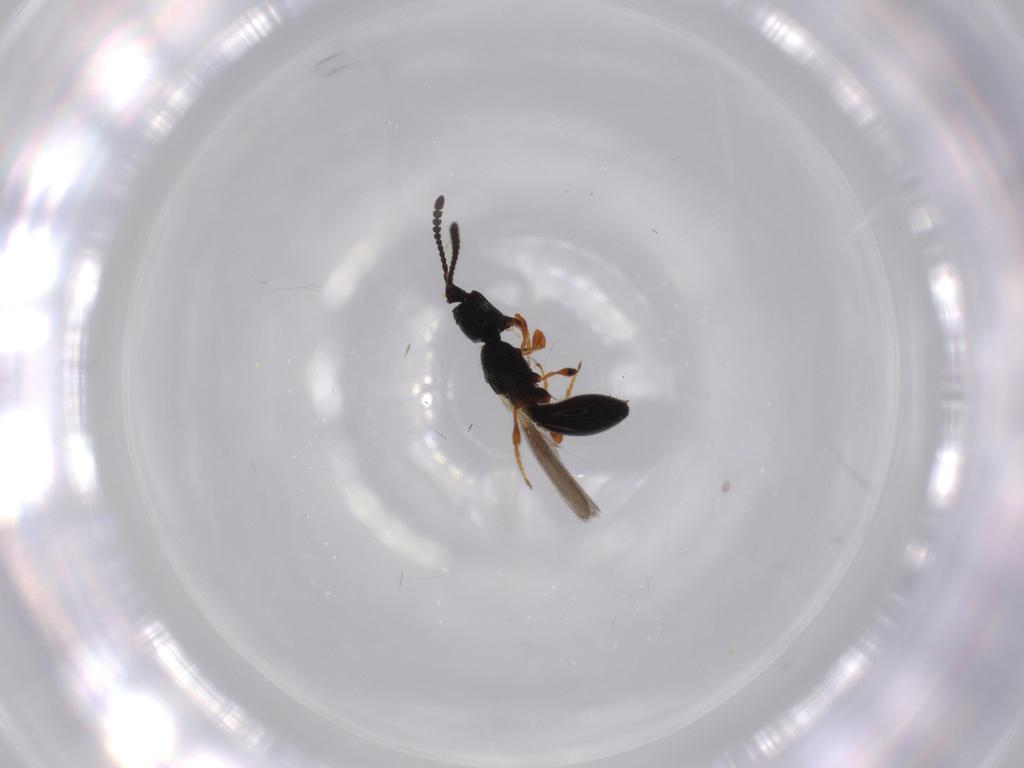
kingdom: Animalia
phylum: Arthropoda
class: Insecta
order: Hymenoptera
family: Diapriidae
